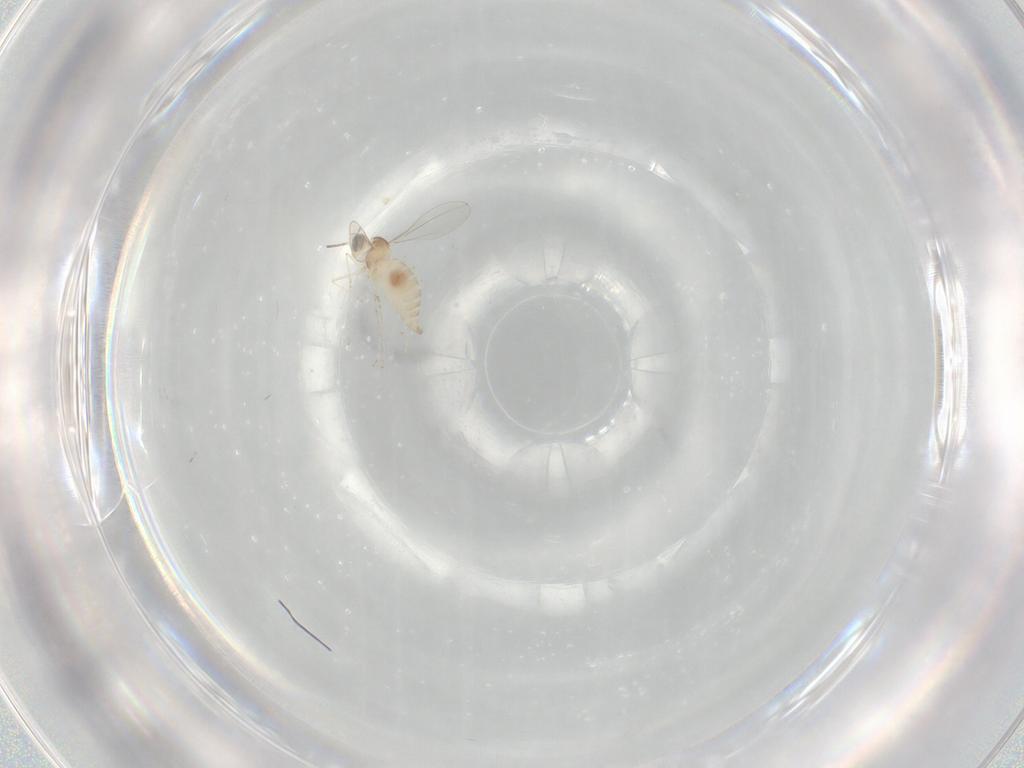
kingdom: Animalia
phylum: Arthropoda
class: Insecta
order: Diptera
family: Cecidomyiidae
